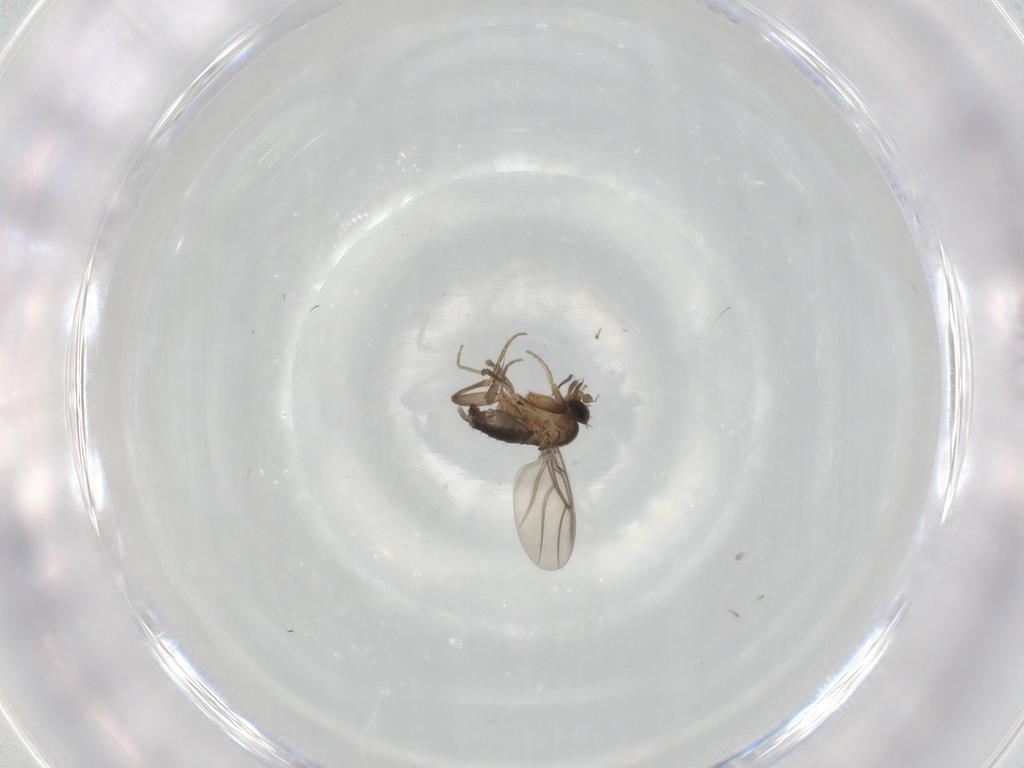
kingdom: Animalia
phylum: Arthropoda
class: Insecta
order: Diptera
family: Phoridae
